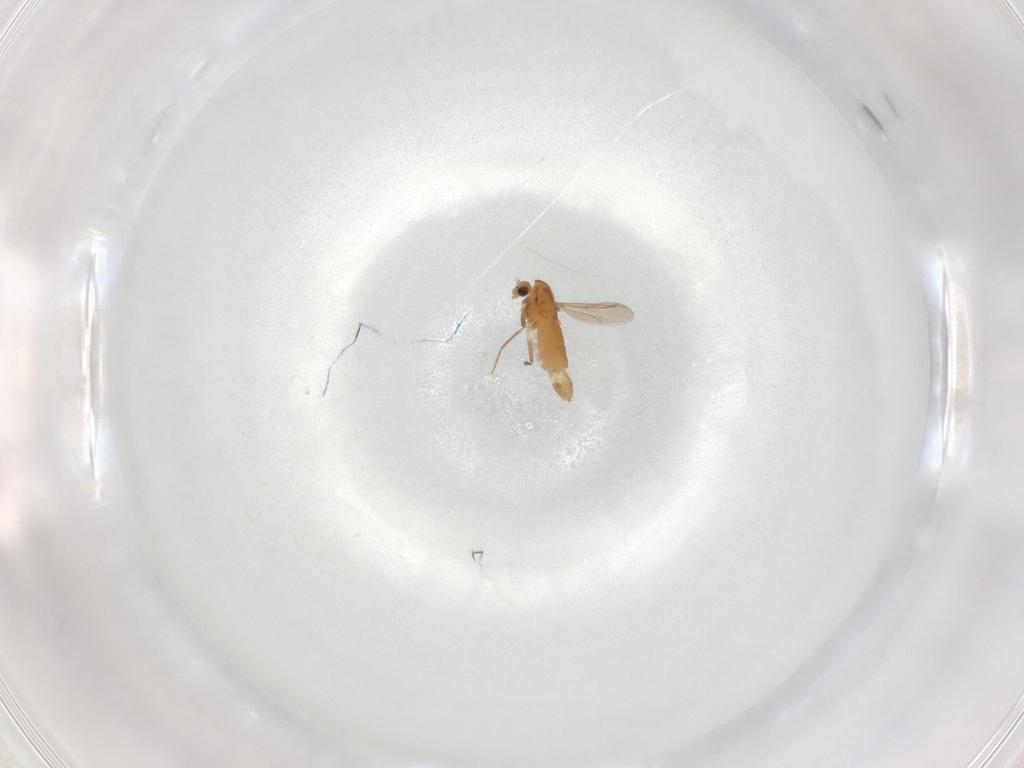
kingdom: Animalia
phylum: Arthropoda
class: Insecta
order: Diptera
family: Chironomidae
